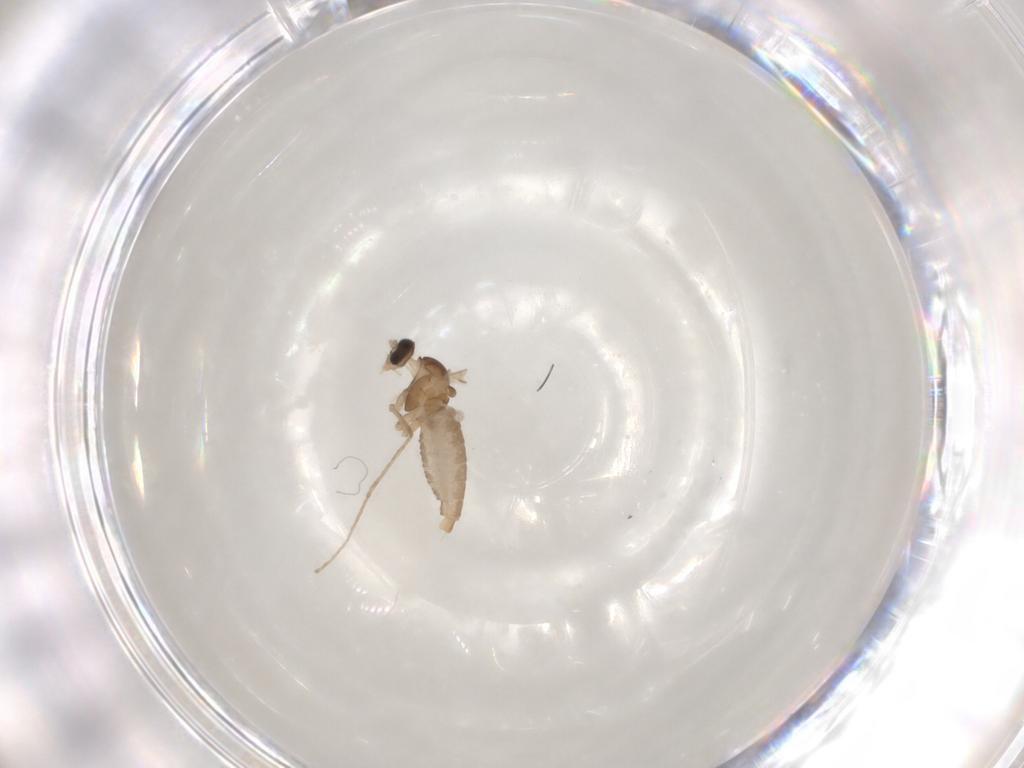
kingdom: Animalia
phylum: Arthropoda
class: Insecta
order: Diptera
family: Cecidomyiidae
